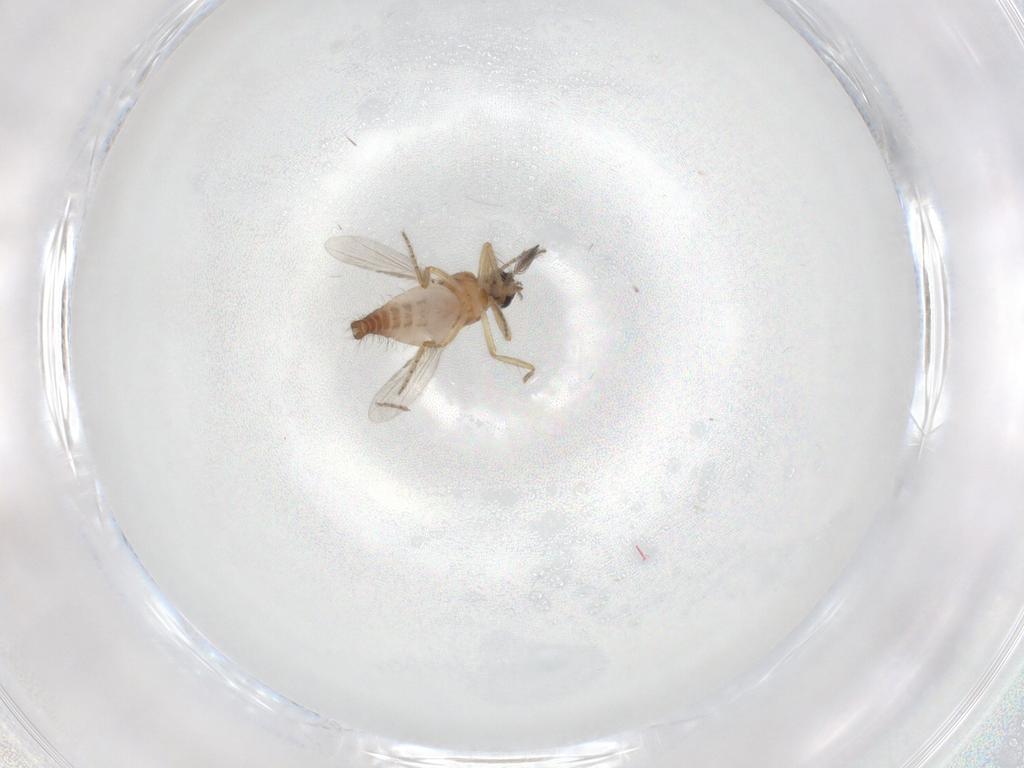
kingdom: Animalia
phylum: Arthropoda
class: Insecta
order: Diptera
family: Ceratopogonidae
